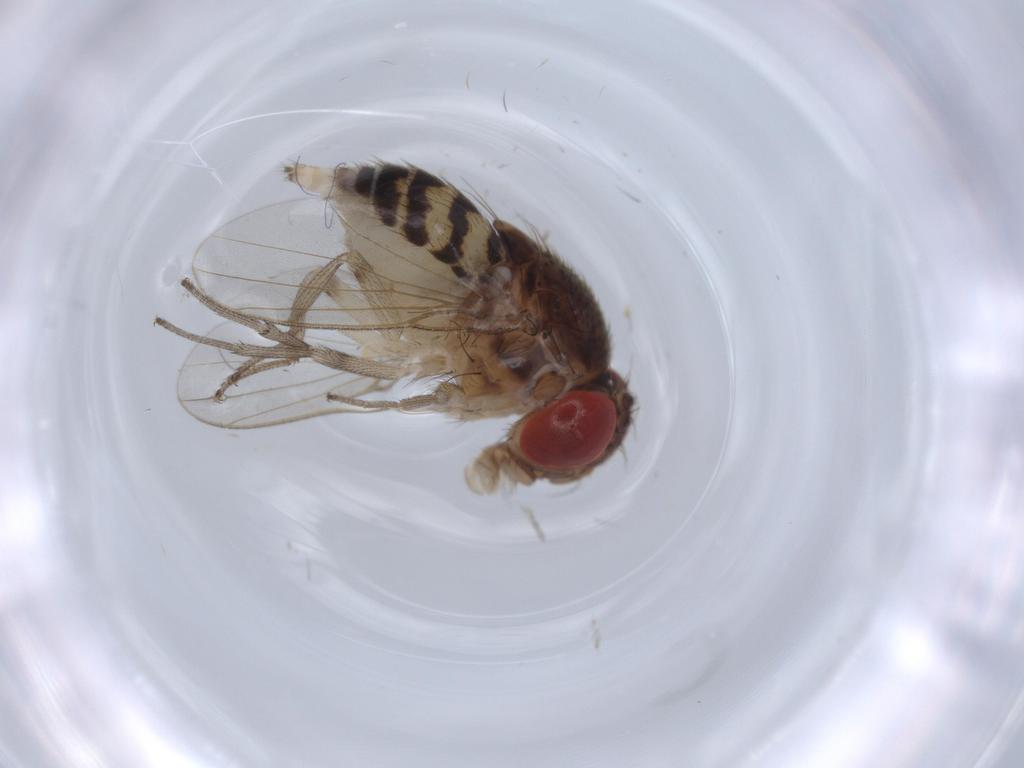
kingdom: Animalia
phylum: Arthropoda
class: Insecta
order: Diptera
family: Drosophilidae
